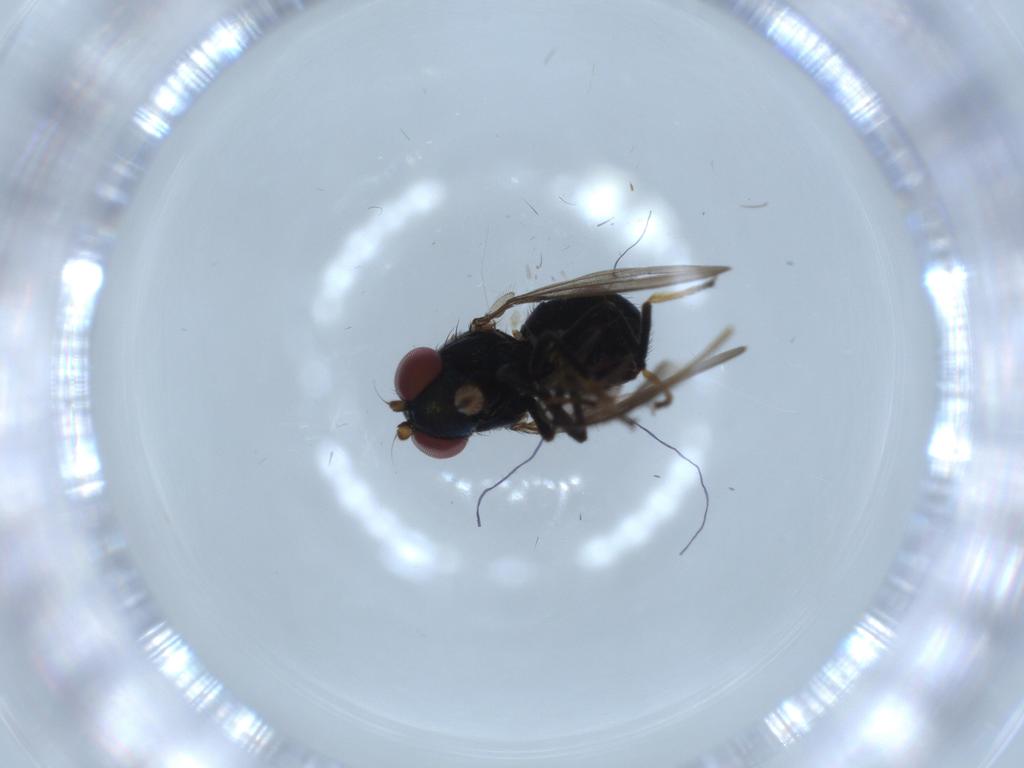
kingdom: Animalia
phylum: Arthropoda
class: Insecta
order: Diptera
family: Ephydridae
